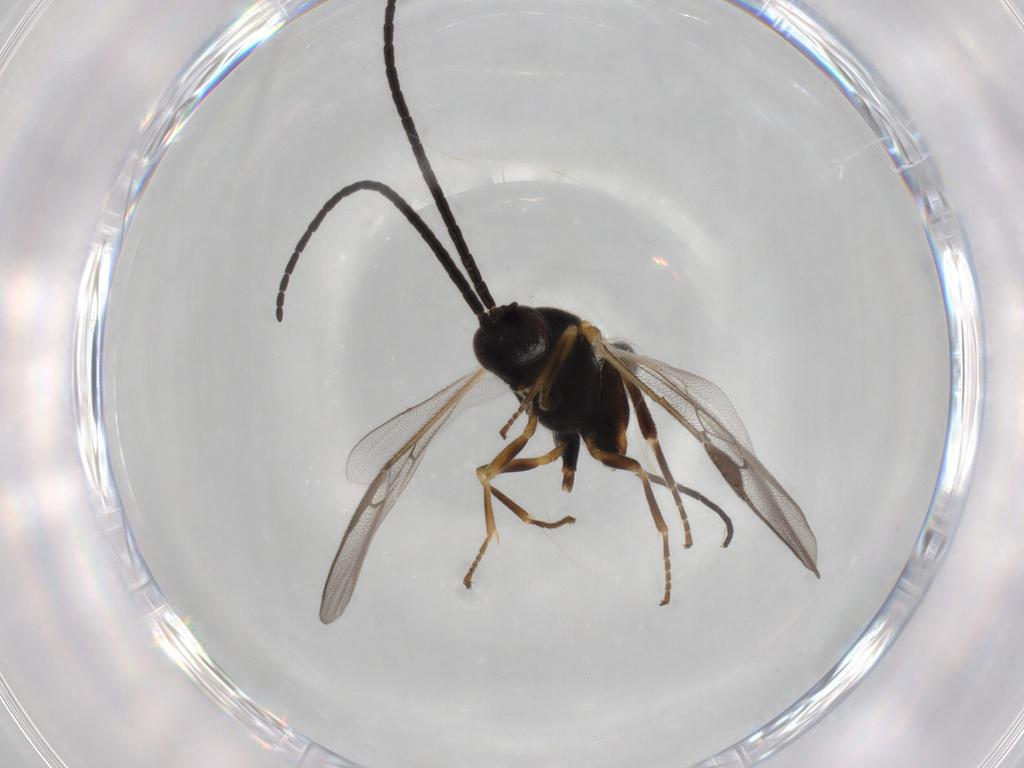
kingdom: Animalia
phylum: Arthropoda
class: Insecta
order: Hymenoptera
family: Braconidae
